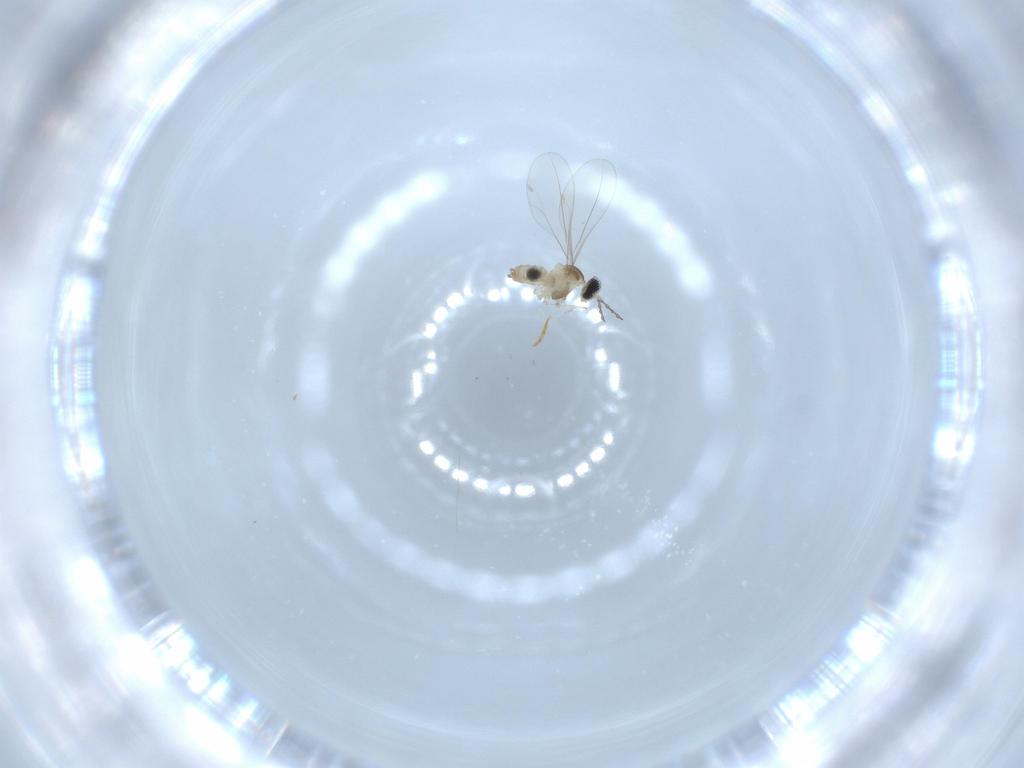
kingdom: Animalia
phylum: Arthropoda
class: Insecta
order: Diptera
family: Cecidomyiidae
